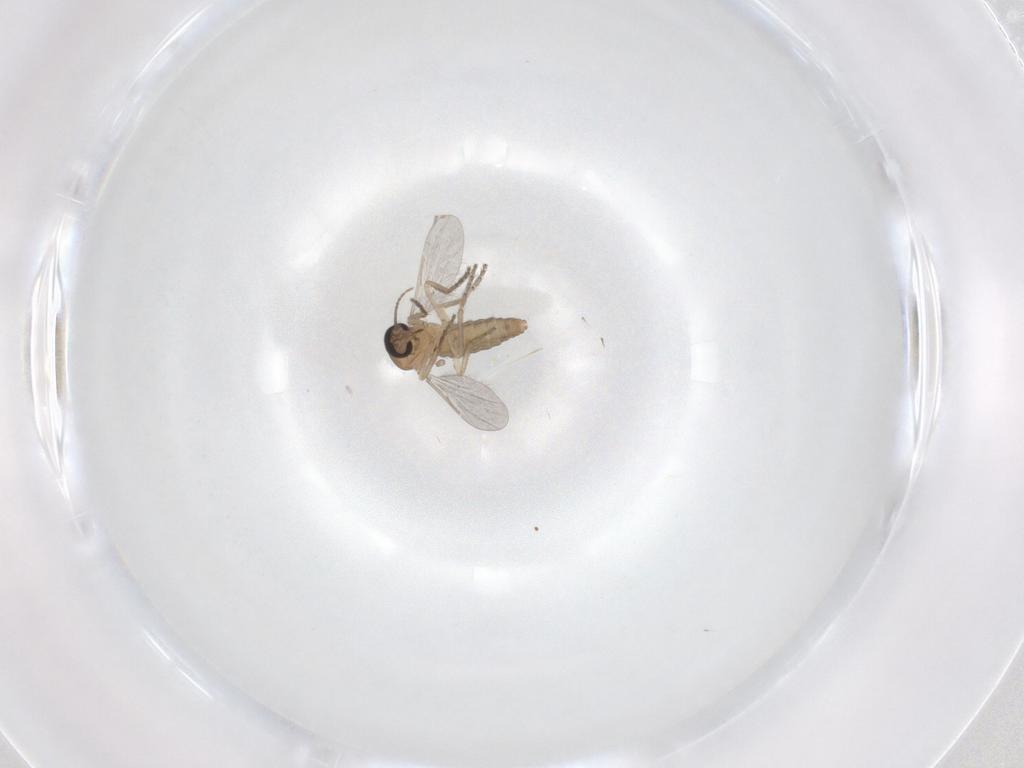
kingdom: Animalia
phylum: Arthropoda
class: Insecta
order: Diptera
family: Ceratopogonidae
